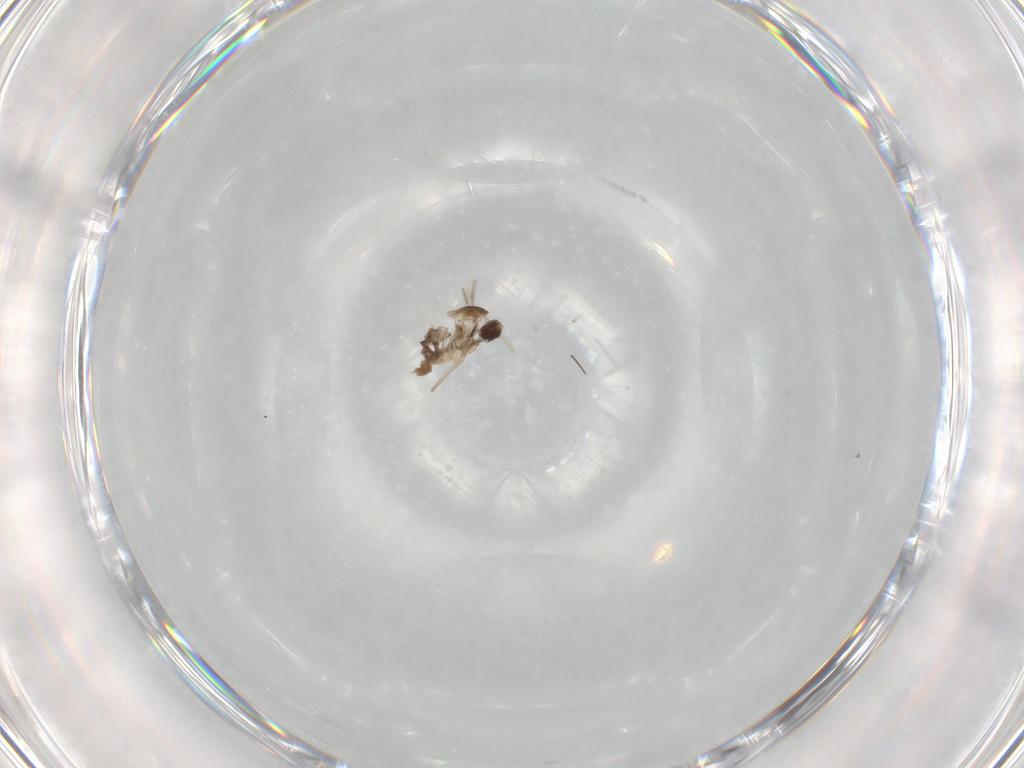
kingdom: Animalia
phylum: Arthropoda
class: Insecta
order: Diptera
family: Cecidomyiidae
